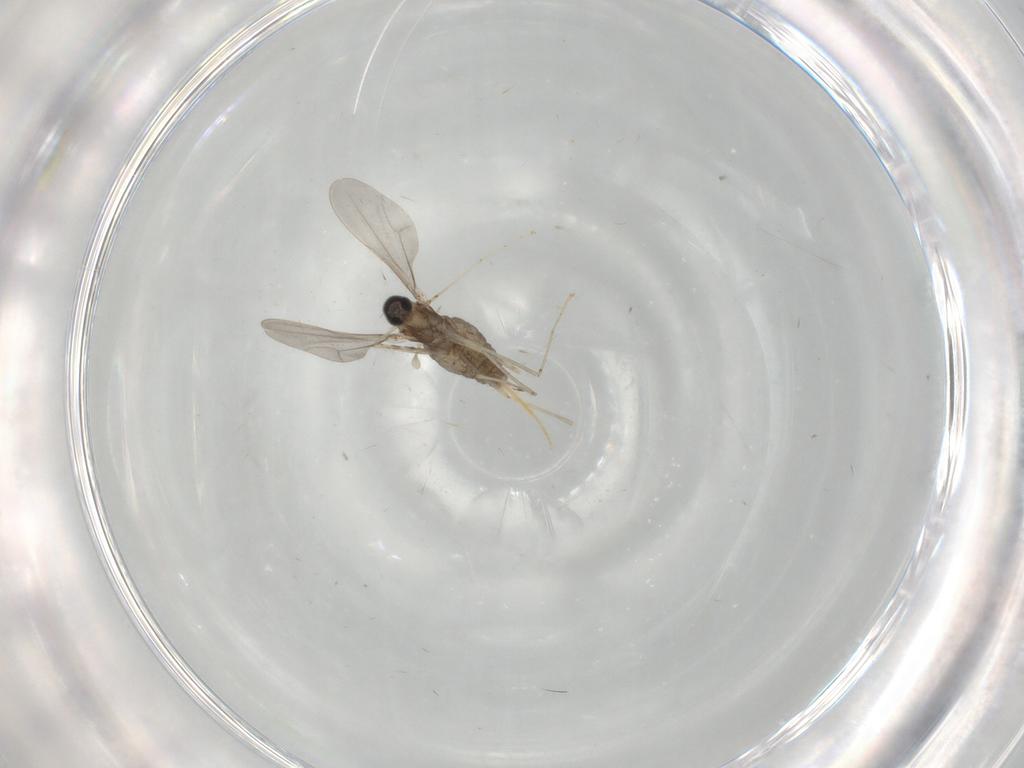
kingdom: Animalia
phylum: Arthropoda
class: Insecta
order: Diptera
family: Cecidomyiidae
